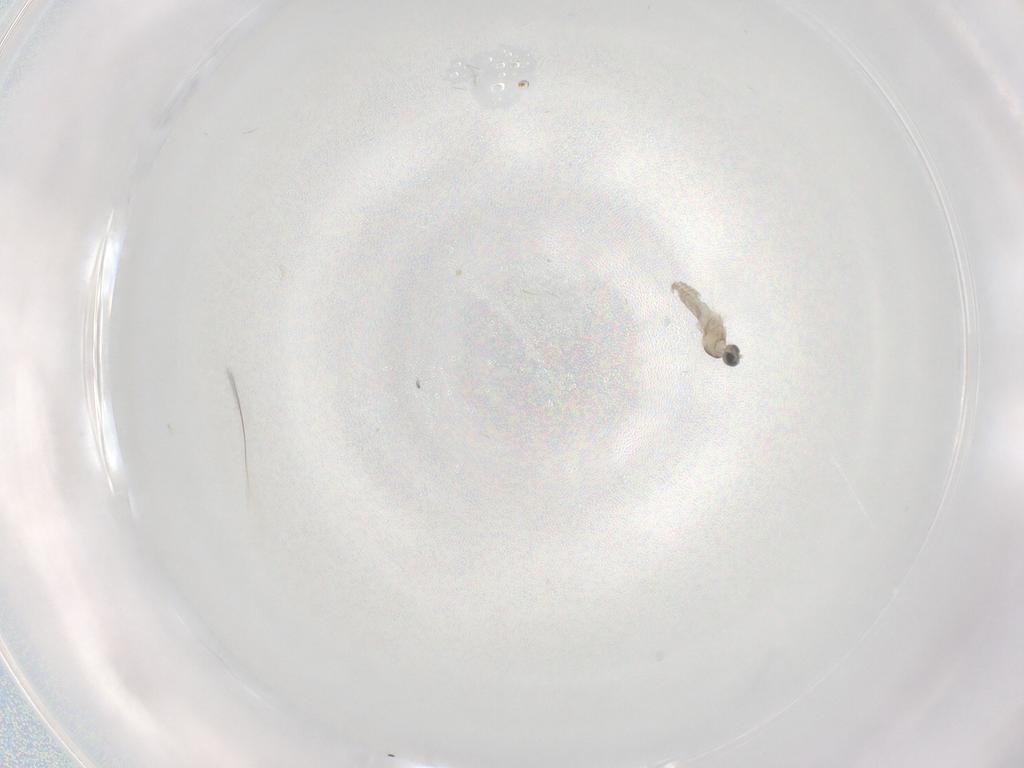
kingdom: Animalia
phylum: Arthropoda
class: Insecta
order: Diptera
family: Cecidomyiidae
